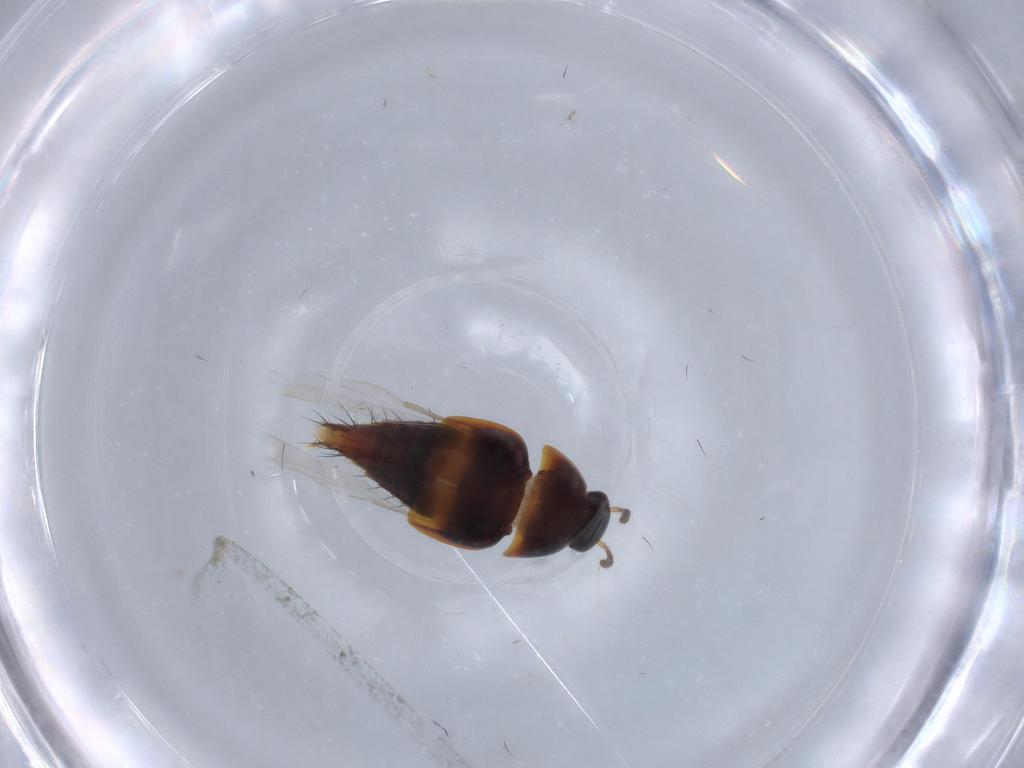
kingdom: Animalia
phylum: Arthropoda
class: Insecta
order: Coleoptera
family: Staphylinidae
